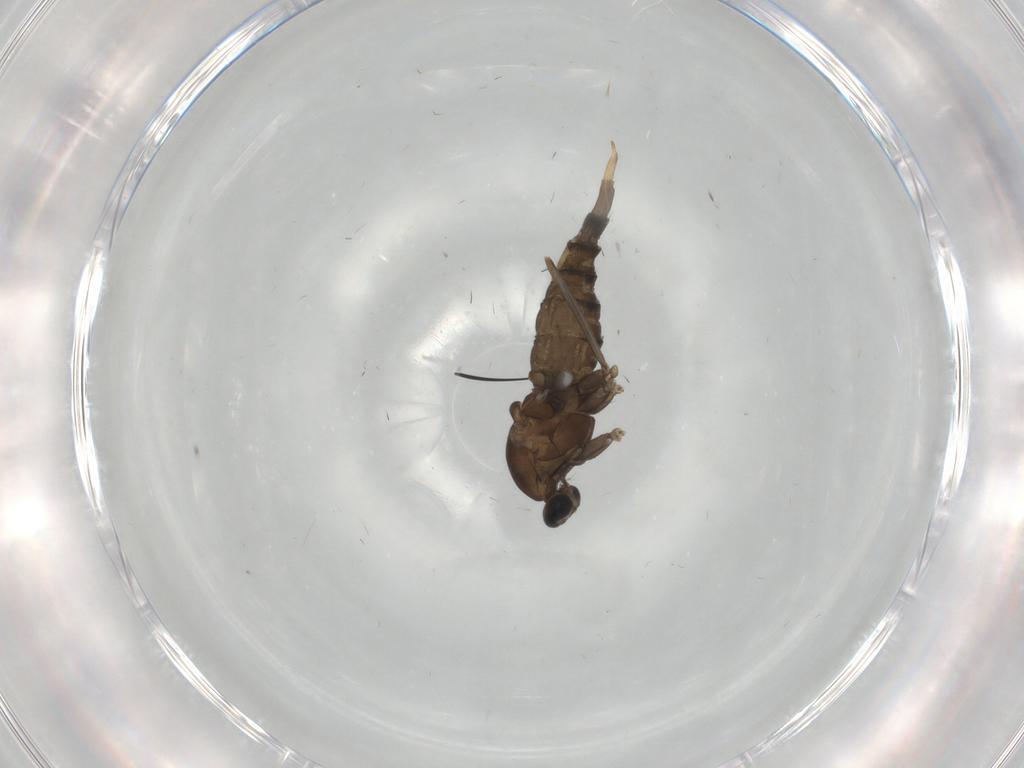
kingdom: Animalia
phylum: Arthropoda
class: Insecta
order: Diptera
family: Cecidomyiidae
